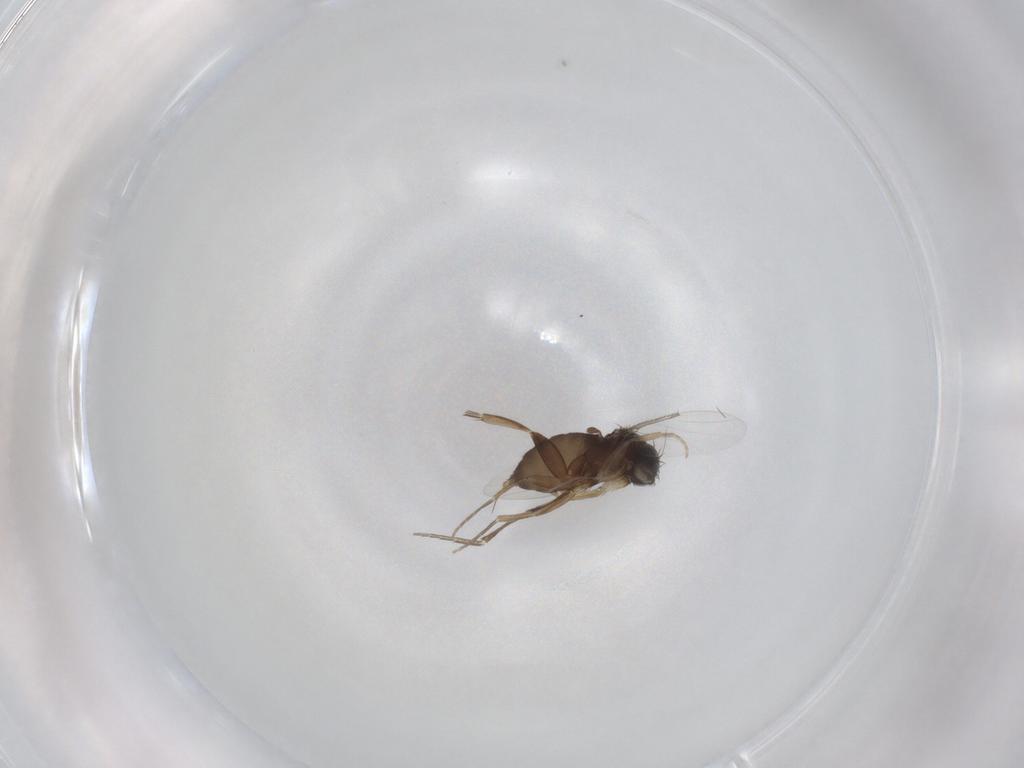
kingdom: Animalia
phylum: Arthropoda
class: Insecta
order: Diptera
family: Phoridae
